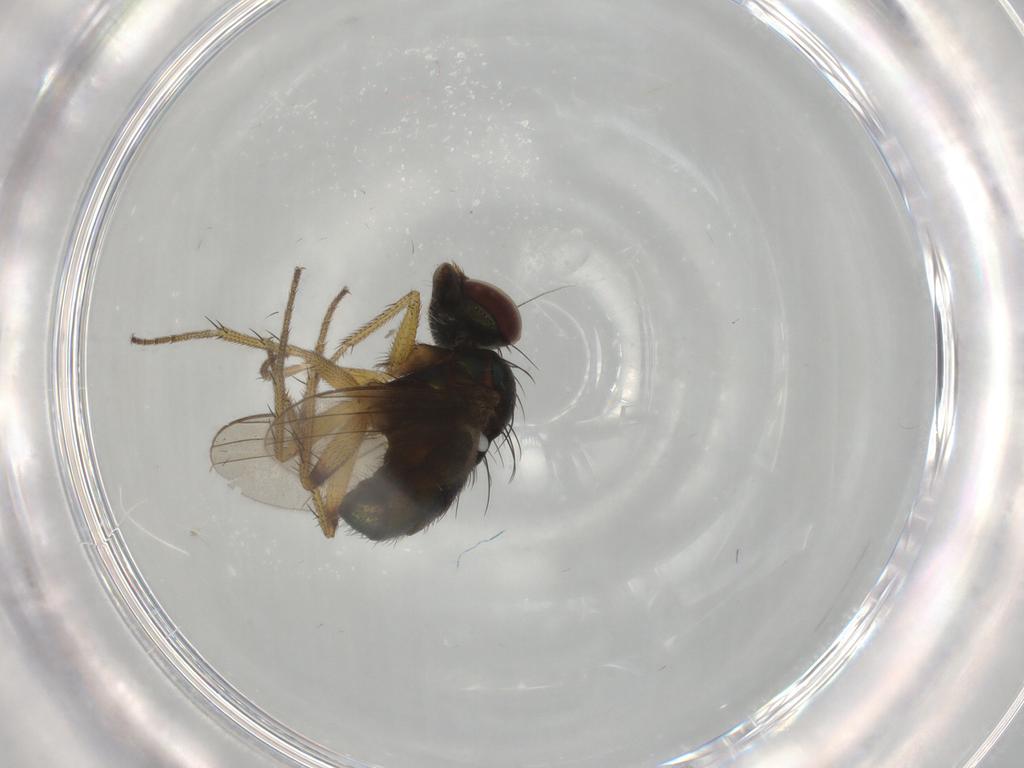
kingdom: Animalia
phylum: Arthropoda
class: Insecta
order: Diptera
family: Dolichopodidae
